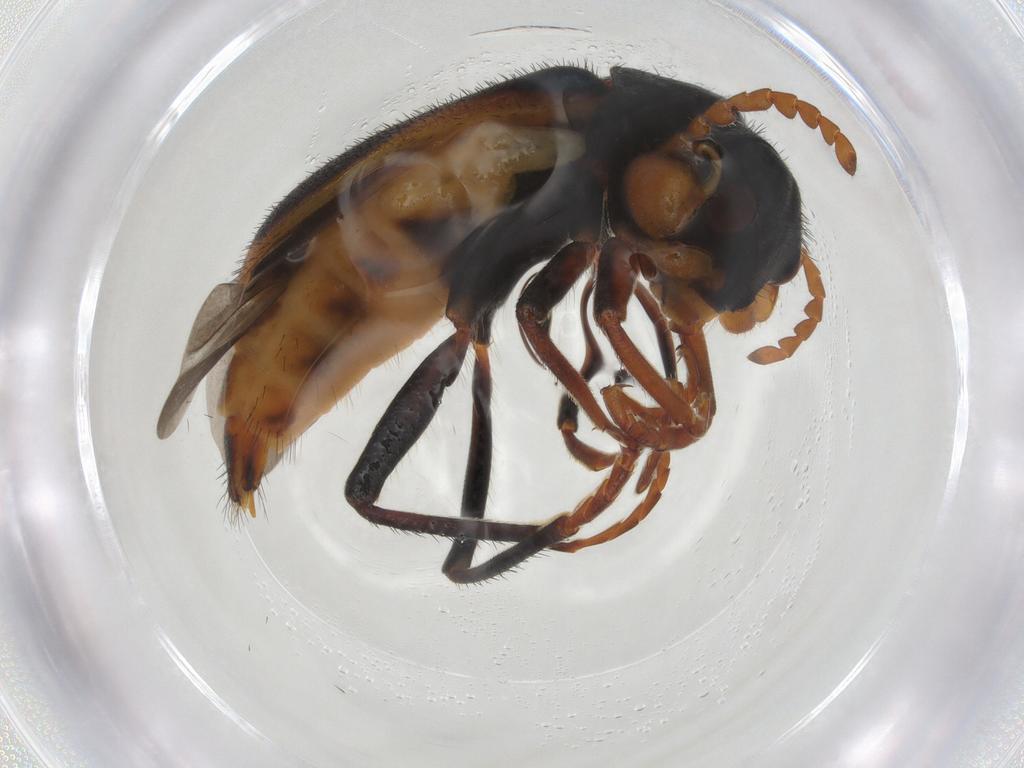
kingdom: Animalia
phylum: Arthropoda
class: Insecta
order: Coleoptera
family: Melyridae
